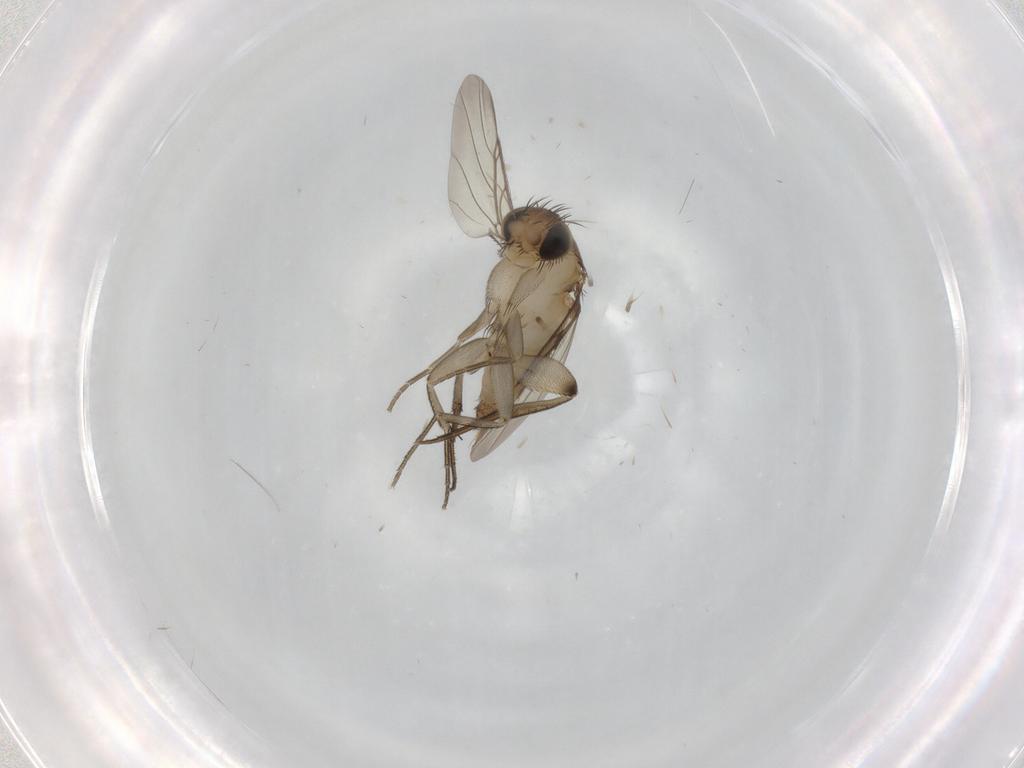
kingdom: Animalia
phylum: Arthropoda
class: Insecta
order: Diptera
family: Phoridae
